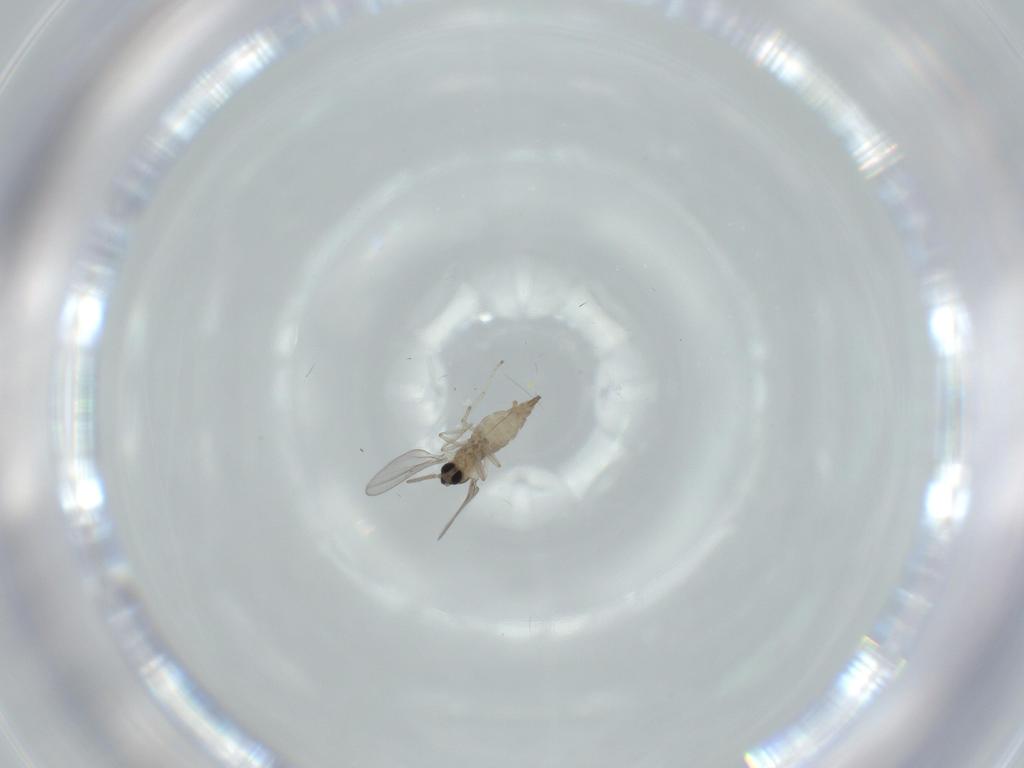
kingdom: Animalia
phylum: Arthropoda
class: Insecta
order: Diptera
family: Cecidomyiidae
